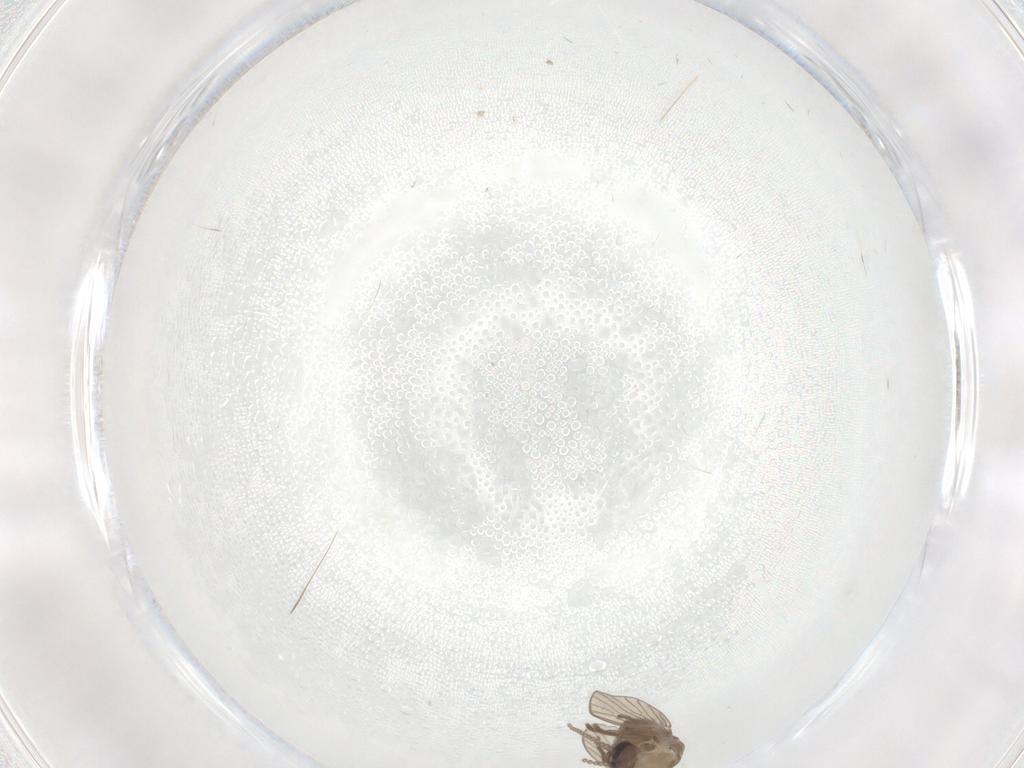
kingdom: Animalia
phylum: Arthropoda
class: Insecta
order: Diptera
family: Psychodidae
